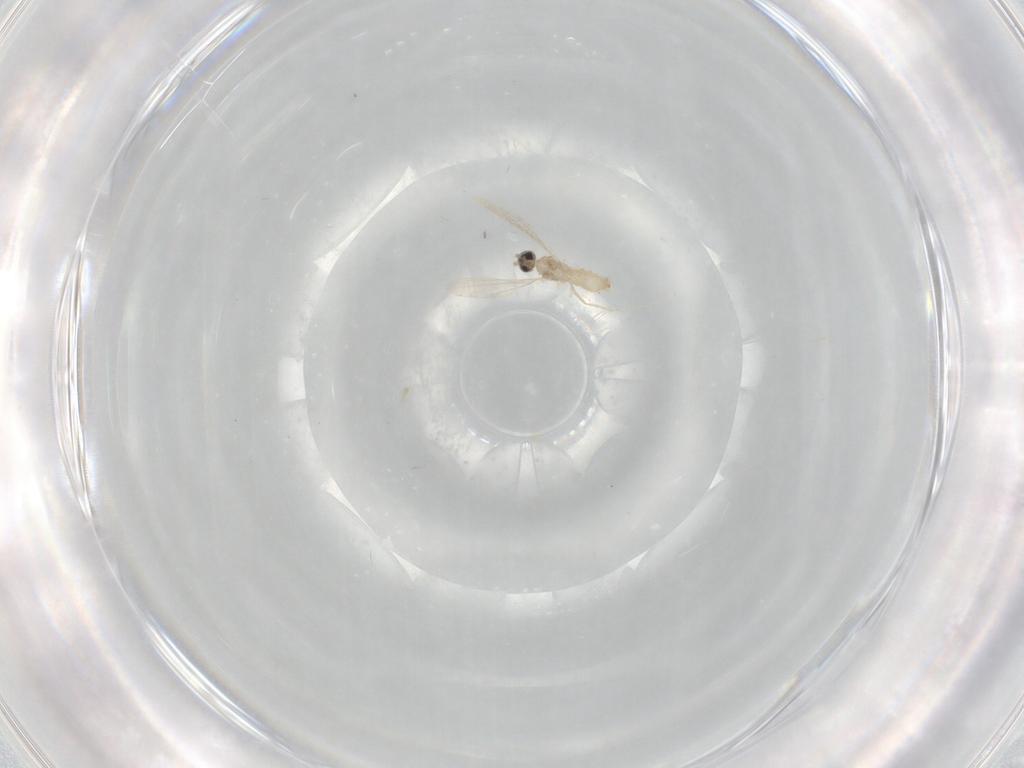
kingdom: Animalia
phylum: Arthropoda
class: Insecta
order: Diptera
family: Cecidomyiidae
